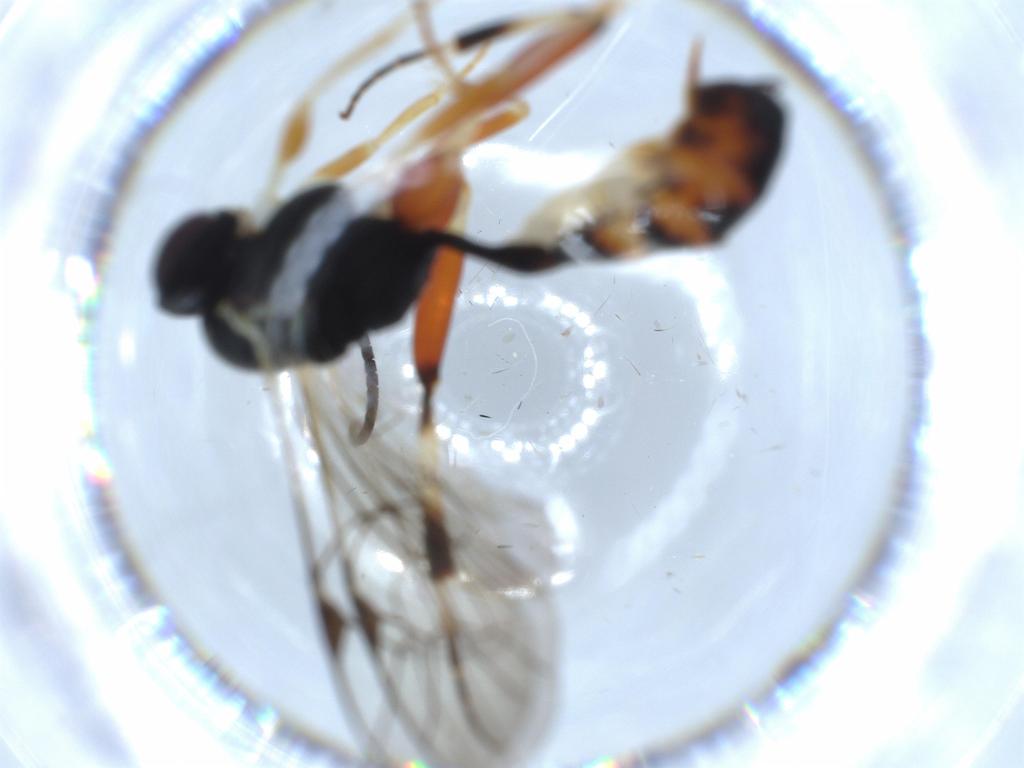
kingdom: Animalia
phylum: Arthropoda
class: Insecta
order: Hymenoptera
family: Ichneumonidae
